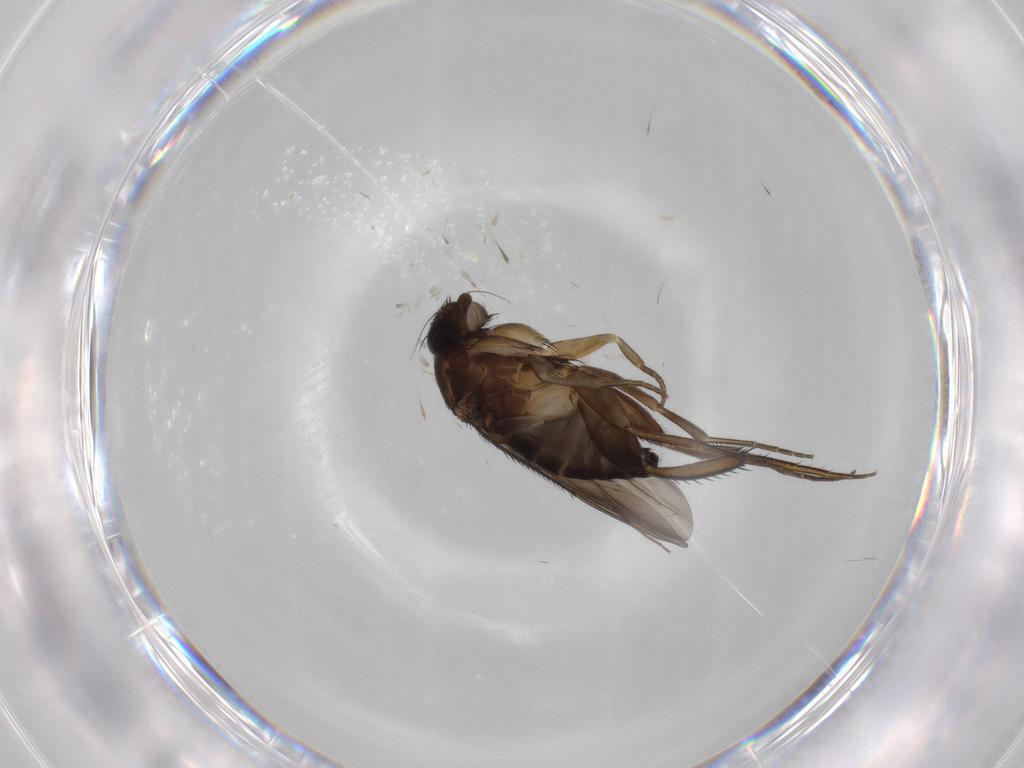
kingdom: Animalia
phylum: Arthropoda
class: Insecta
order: Diptera
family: Phoridae
